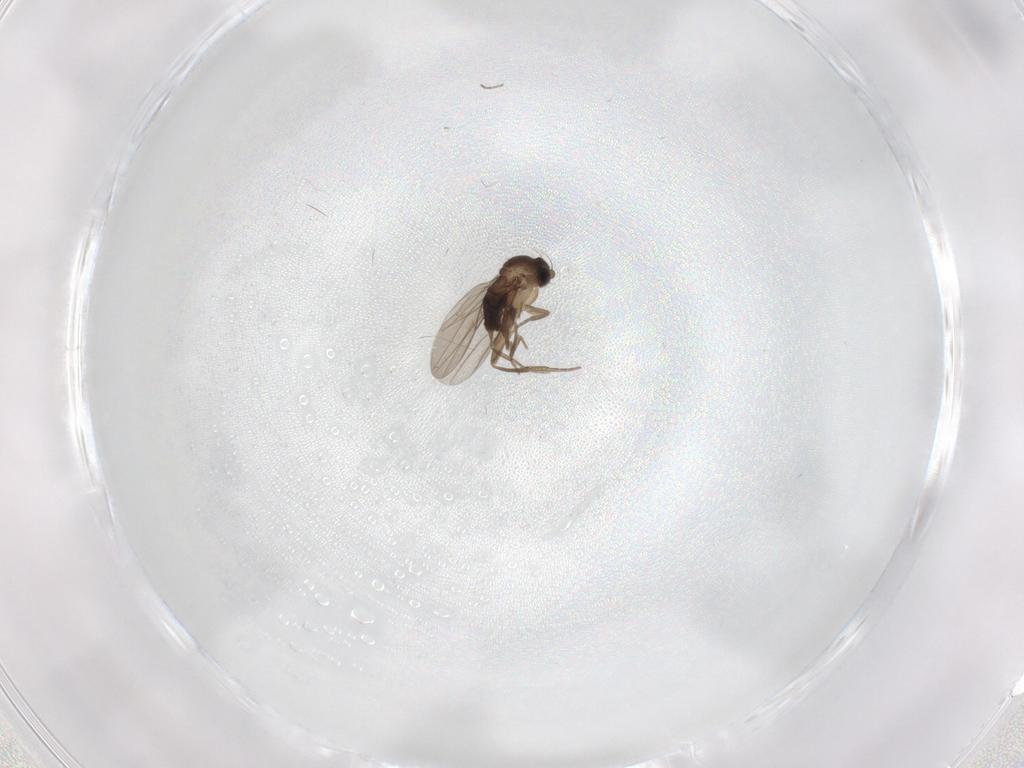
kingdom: Animalia
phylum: Arthropoda
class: Insecta
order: Diptera
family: Phoridae
